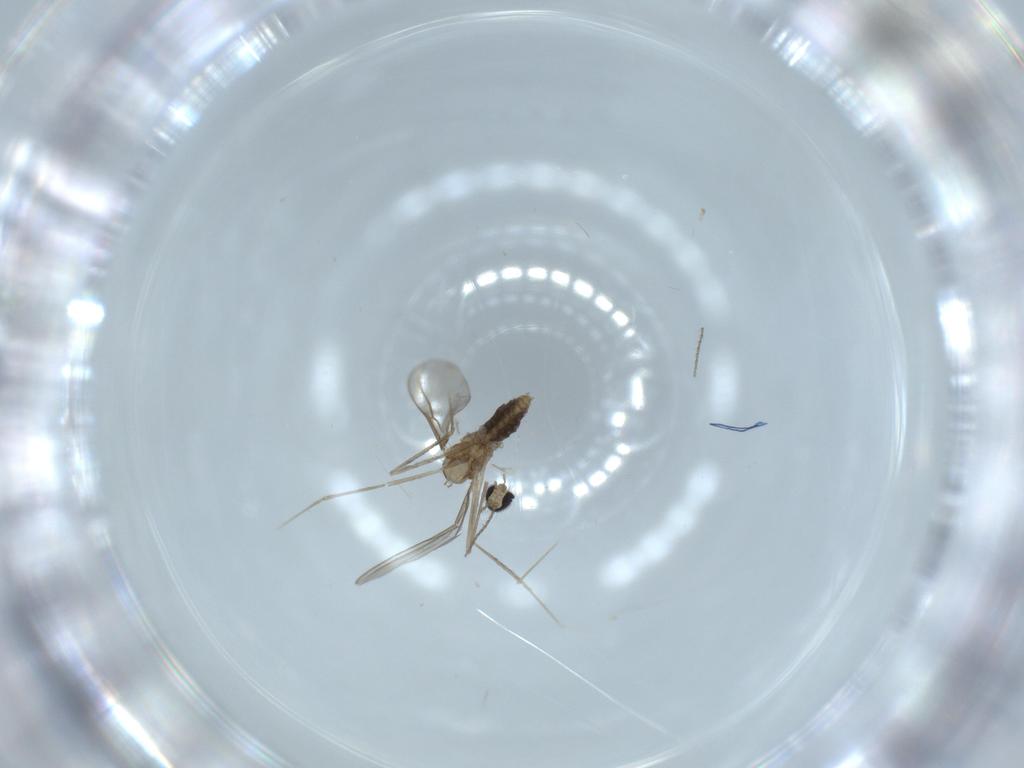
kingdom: Animalia
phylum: Arthropoda
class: Insecta
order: Diptera
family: Cecidomyiidae
